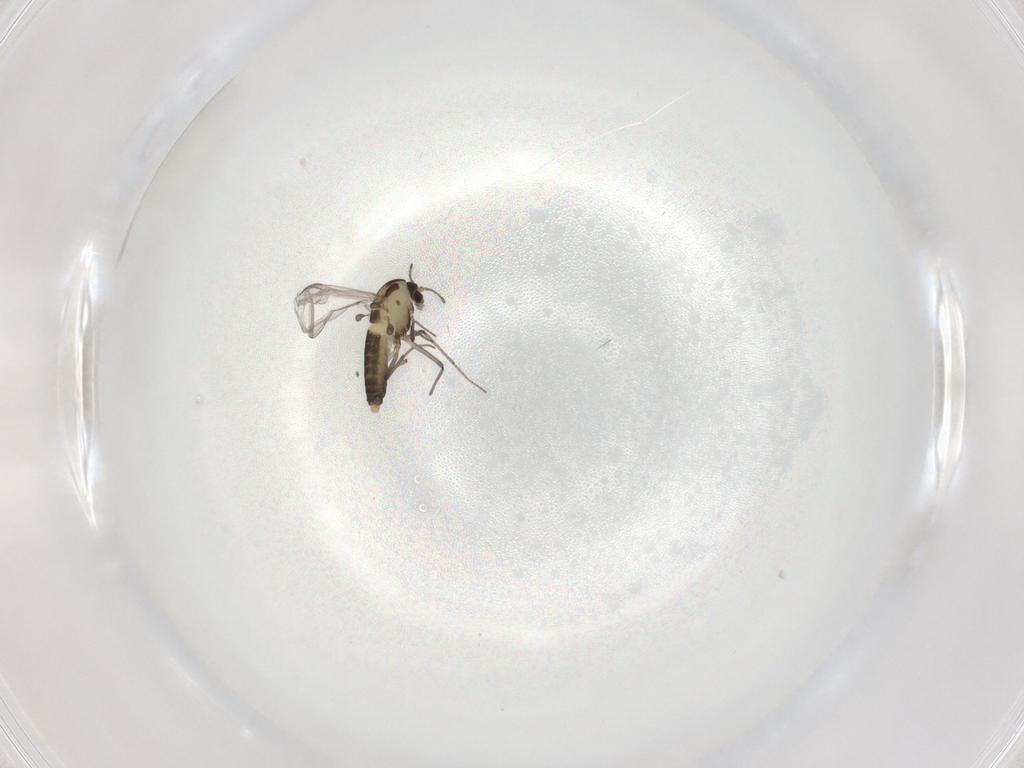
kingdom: Animalia
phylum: Arthropoda
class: Insecta
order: Diptera
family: Chironomidae
